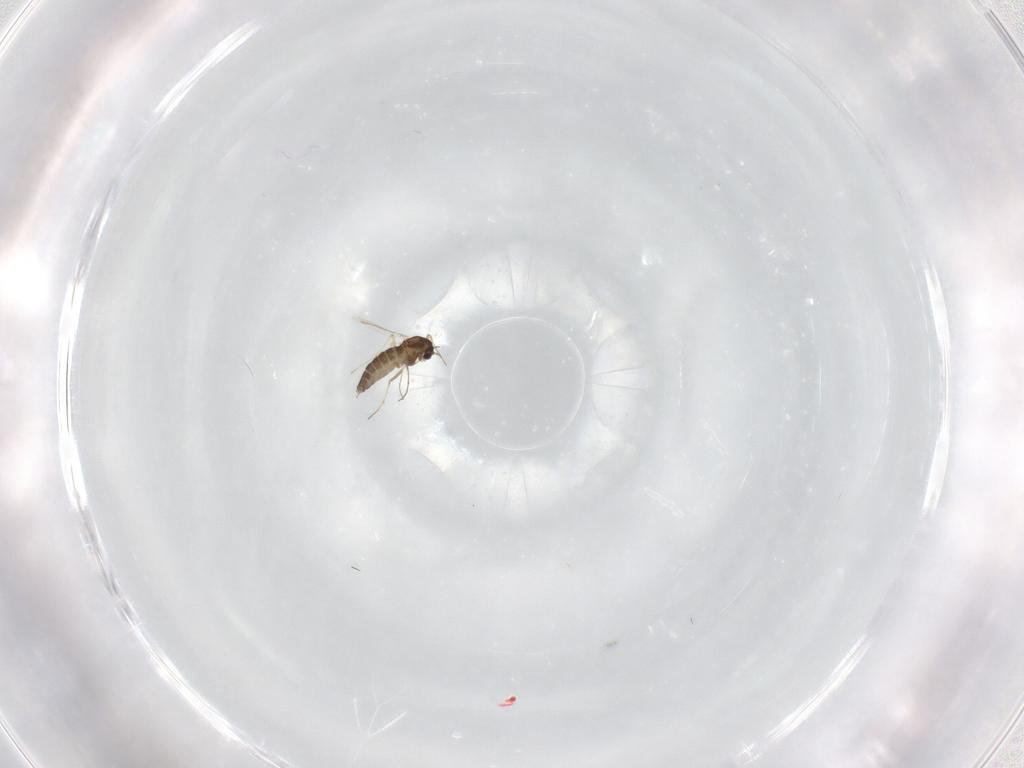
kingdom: Animalia
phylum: Arthropoda
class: Insecta
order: Diptera
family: Chironomidae
